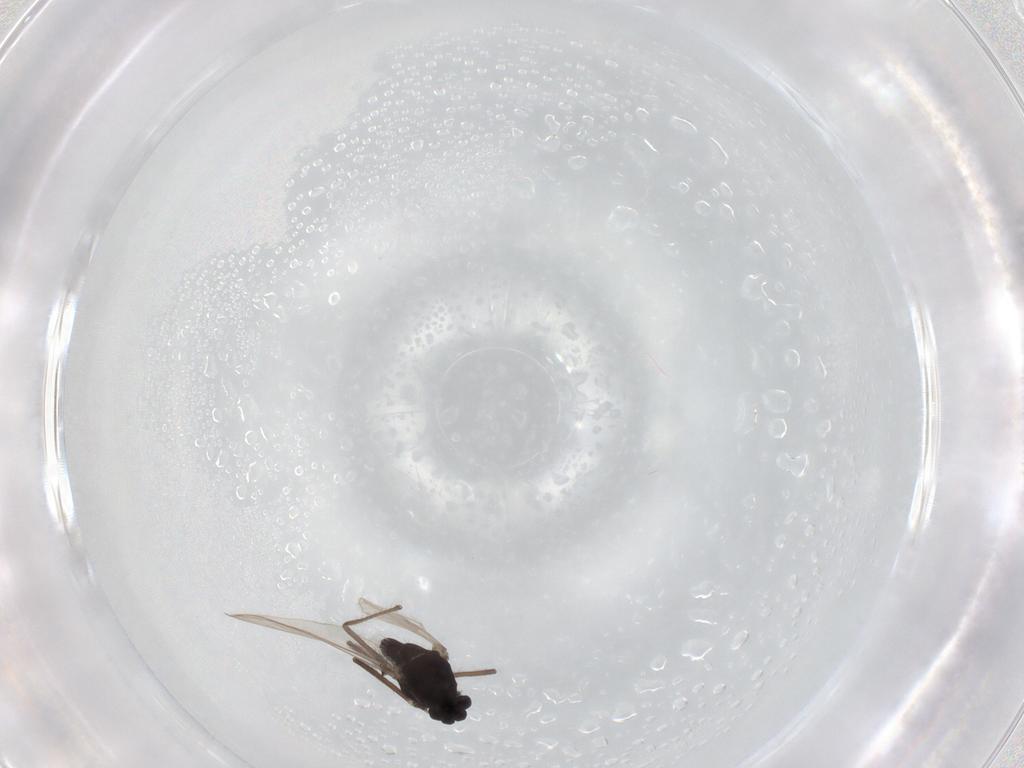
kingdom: Animalia
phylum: Arthropoda
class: Insecta
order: Diptera
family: Chironomidae
